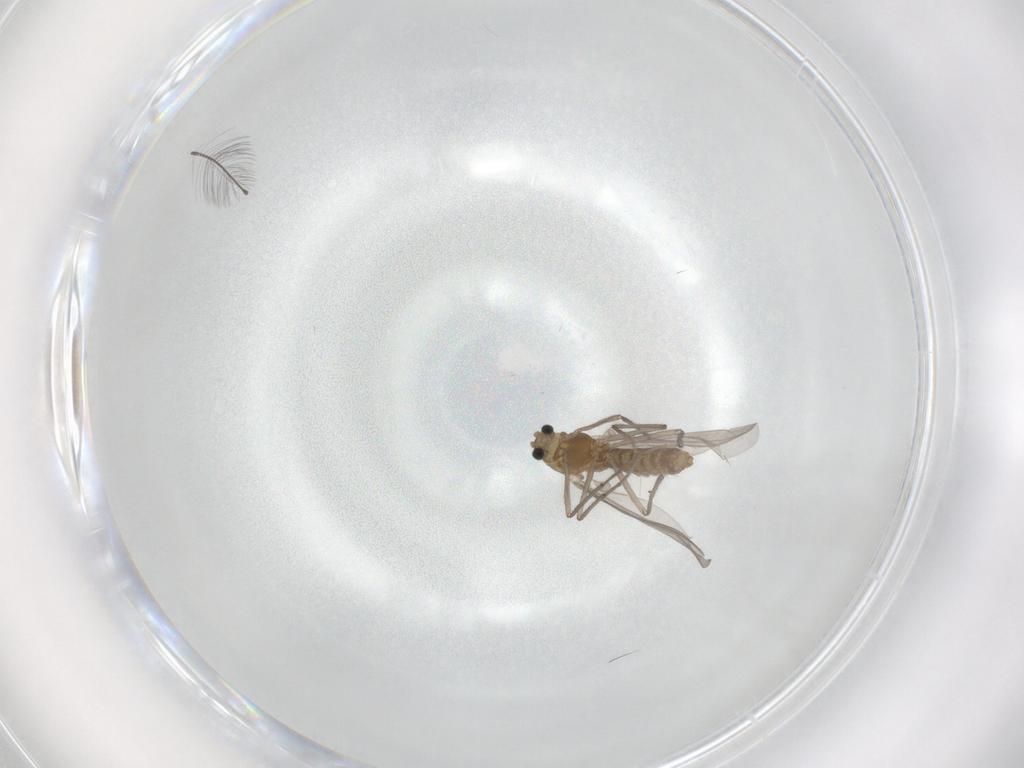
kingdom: Animalia
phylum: Arthropoda
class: Insecta
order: Diptera
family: Chironomidae
